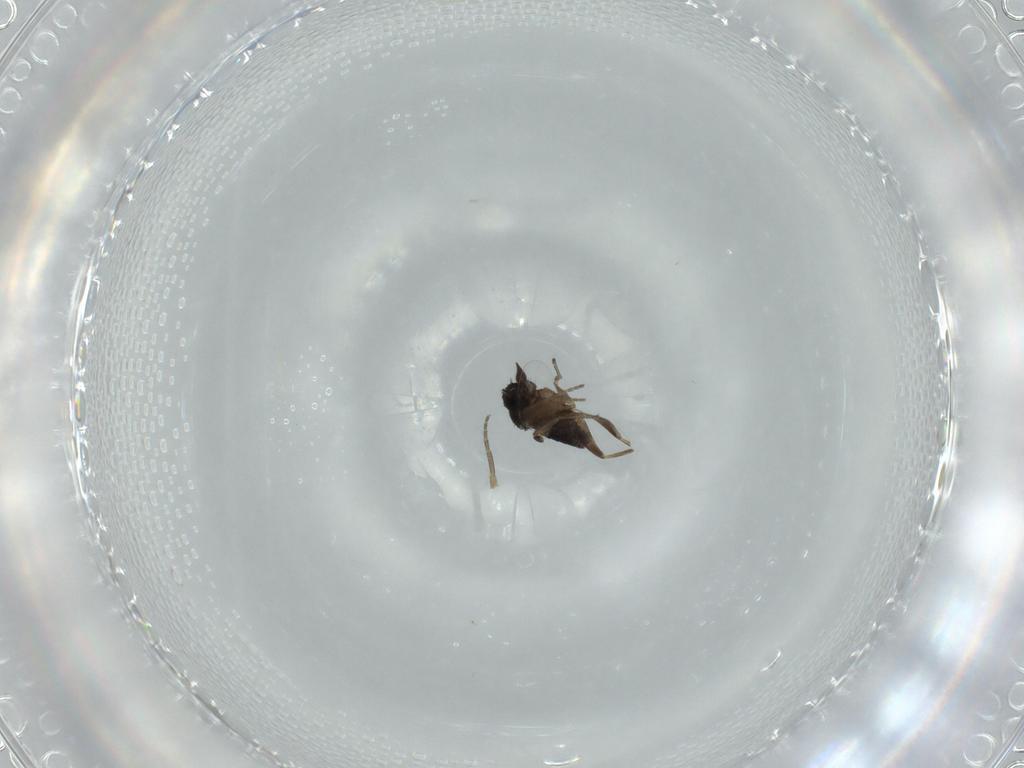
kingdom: Animalia
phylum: Arthropoda
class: Insecta
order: Diptera
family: Phoridae
